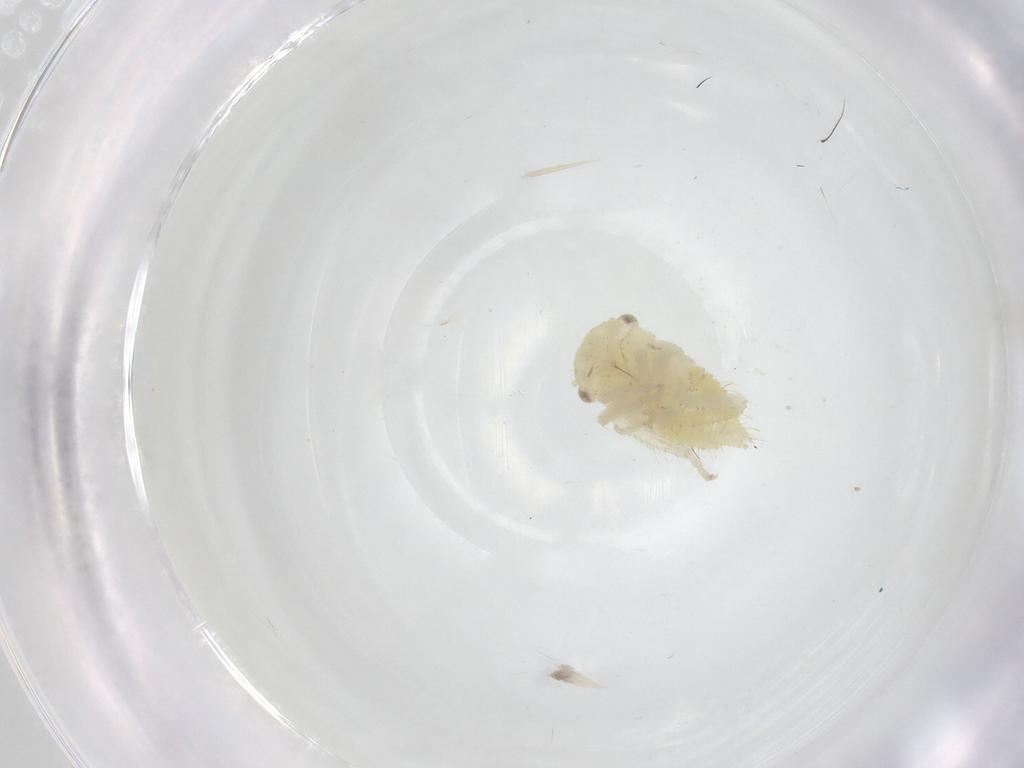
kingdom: Animalia
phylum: Arthropoda
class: Insecta
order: Hemiptera
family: Cicadellidae
